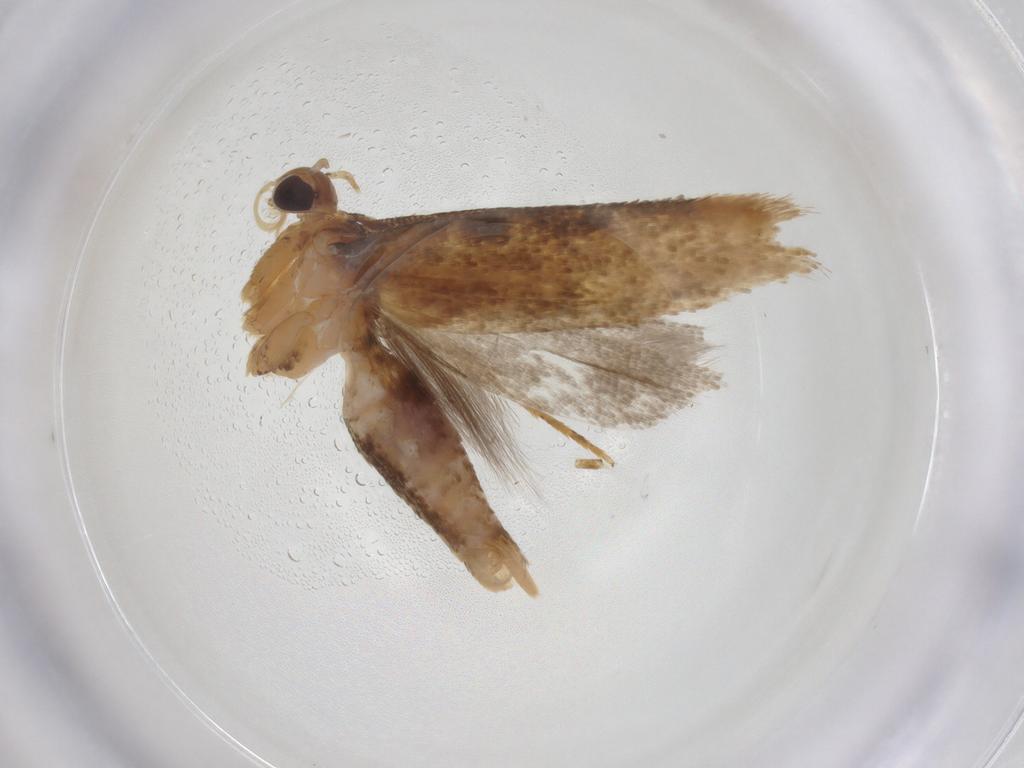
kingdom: Animalia
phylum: Arthropoda
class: Insecta
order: Lepidoptera
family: Gelechiidae
